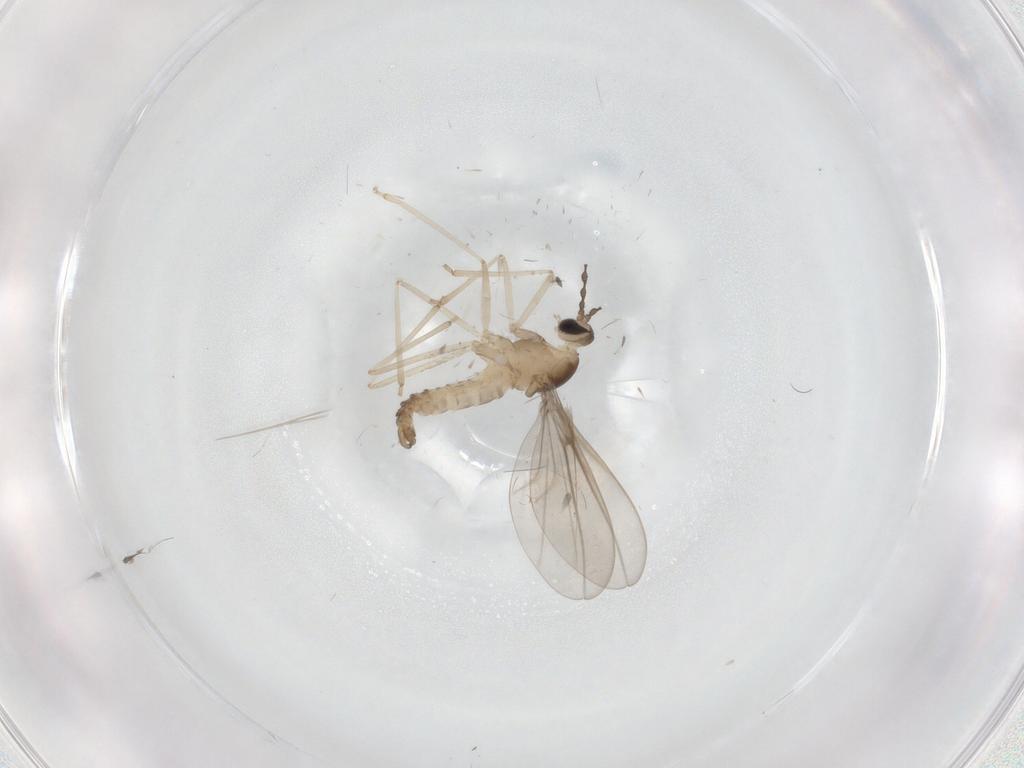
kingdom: Animalia
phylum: Arthropoda
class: Insecta
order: Diptera
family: Cecidomyiidae
